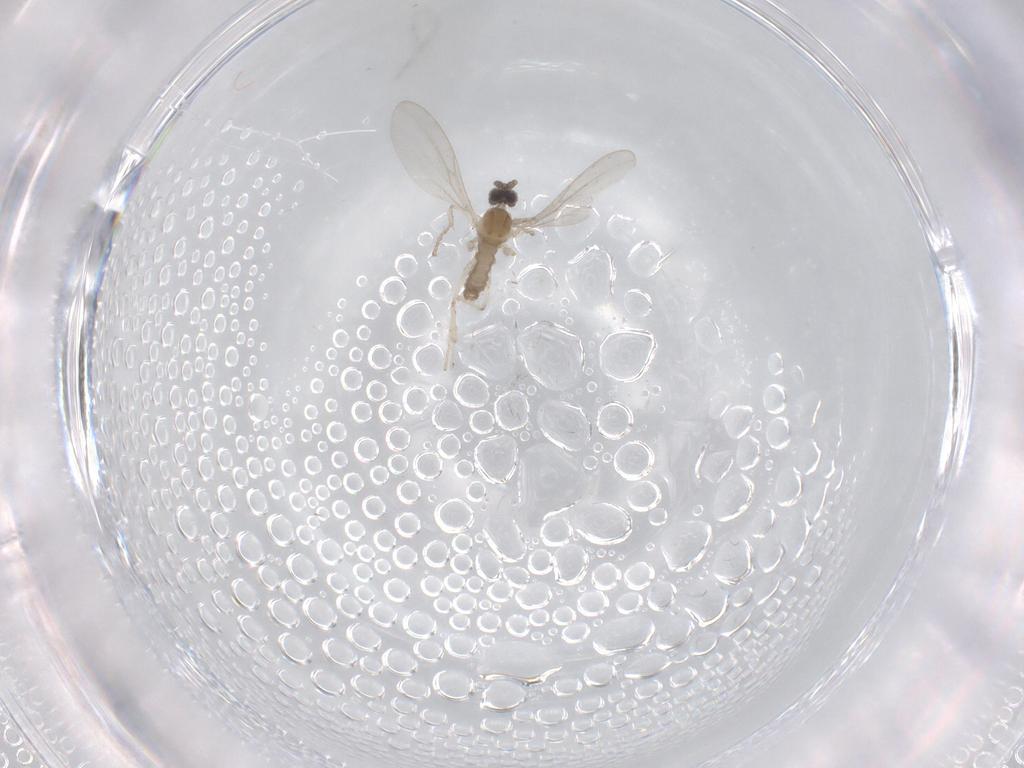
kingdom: Animalia
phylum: Arthropoda
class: Insecta
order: Diptera
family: Cecidomyiidae
